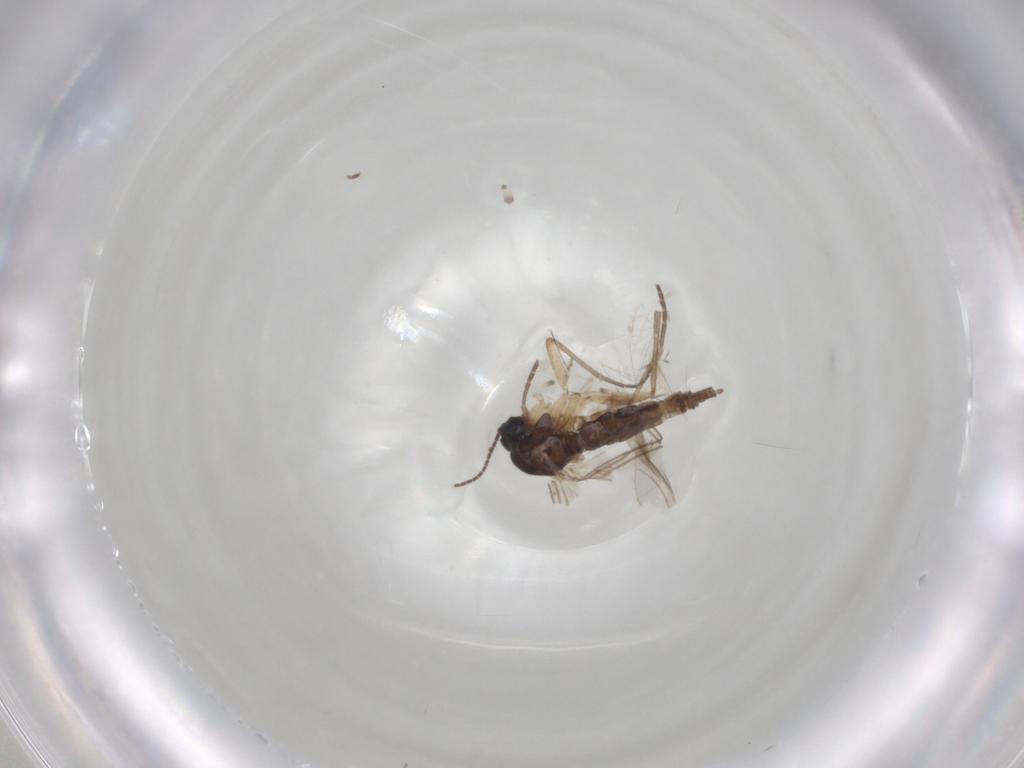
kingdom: Animalia
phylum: Arthropoda
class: Insecta
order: Diptera
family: Ceratopogonidae
